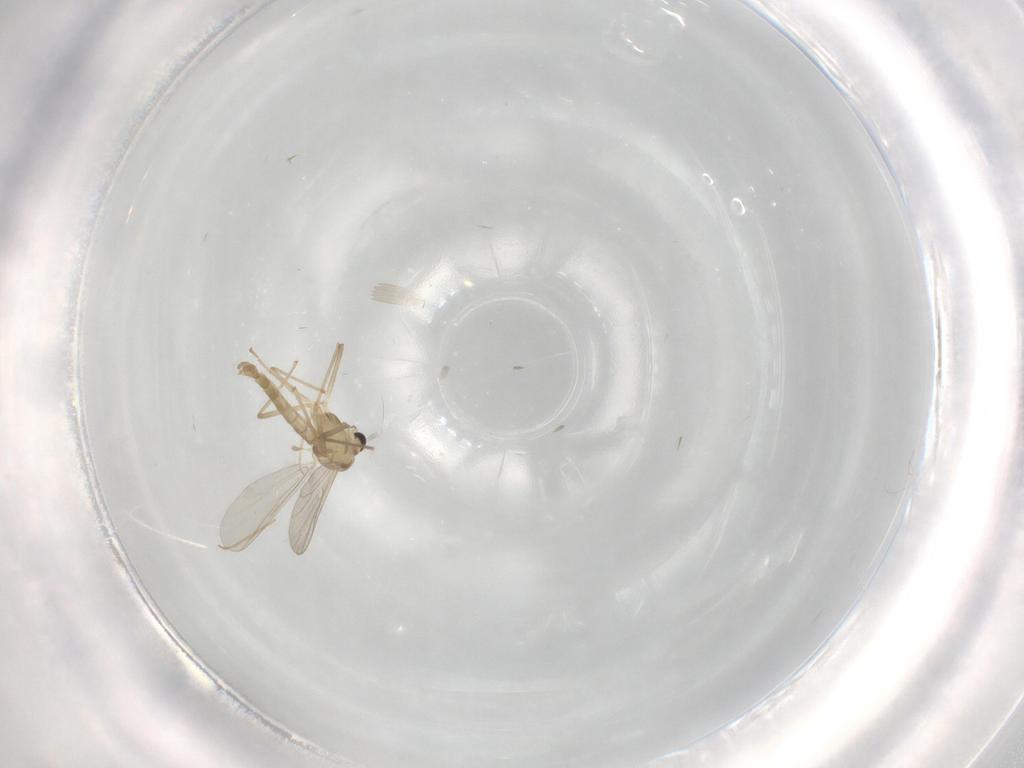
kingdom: Animalia
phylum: Arthropoda
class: Insecta
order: Diptera
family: Chironomidae
